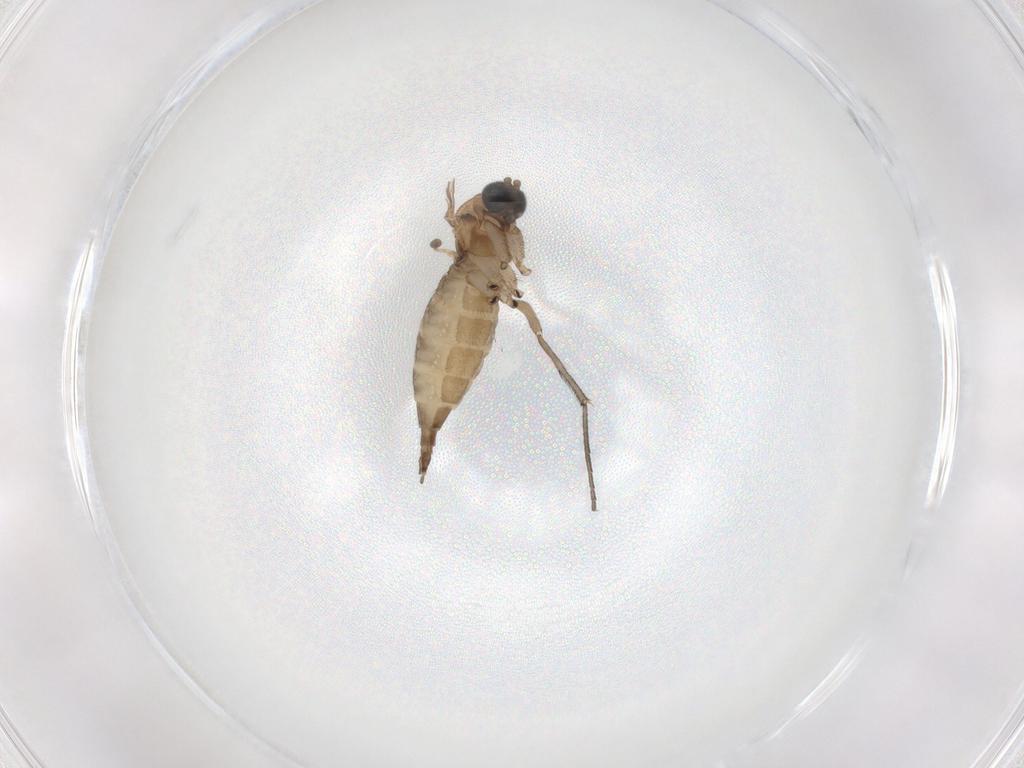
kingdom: Animalia
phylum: Arthropoda
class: Insecta
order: Diptera
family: Sciaridae
